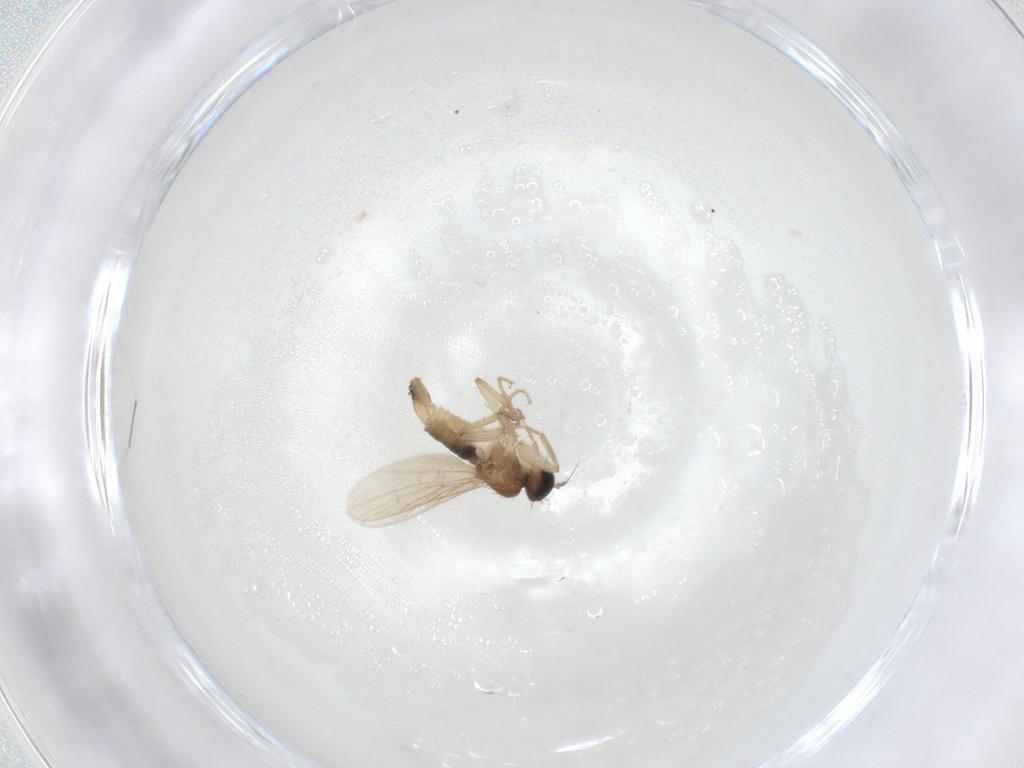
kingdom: Animalia
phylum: Arthropoda
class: Insecta
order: Diptera
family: Hybotidae
